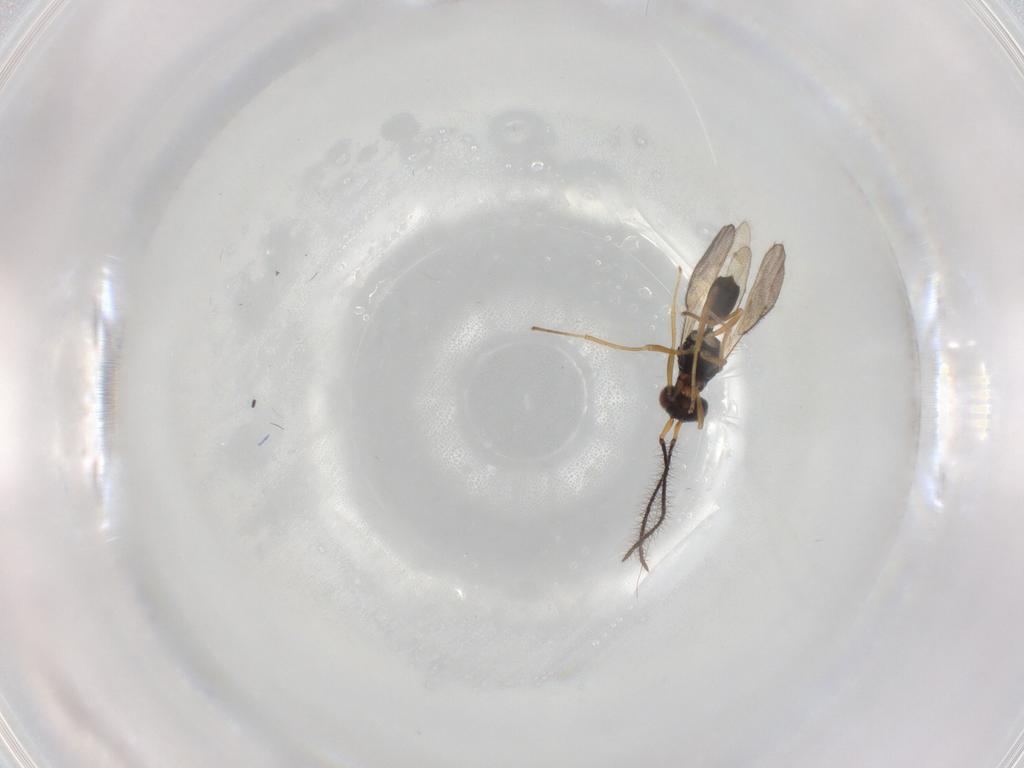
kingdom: Animalia
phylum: Arthropoda
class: Insecta
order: Hymenoptera
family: Diparidae
